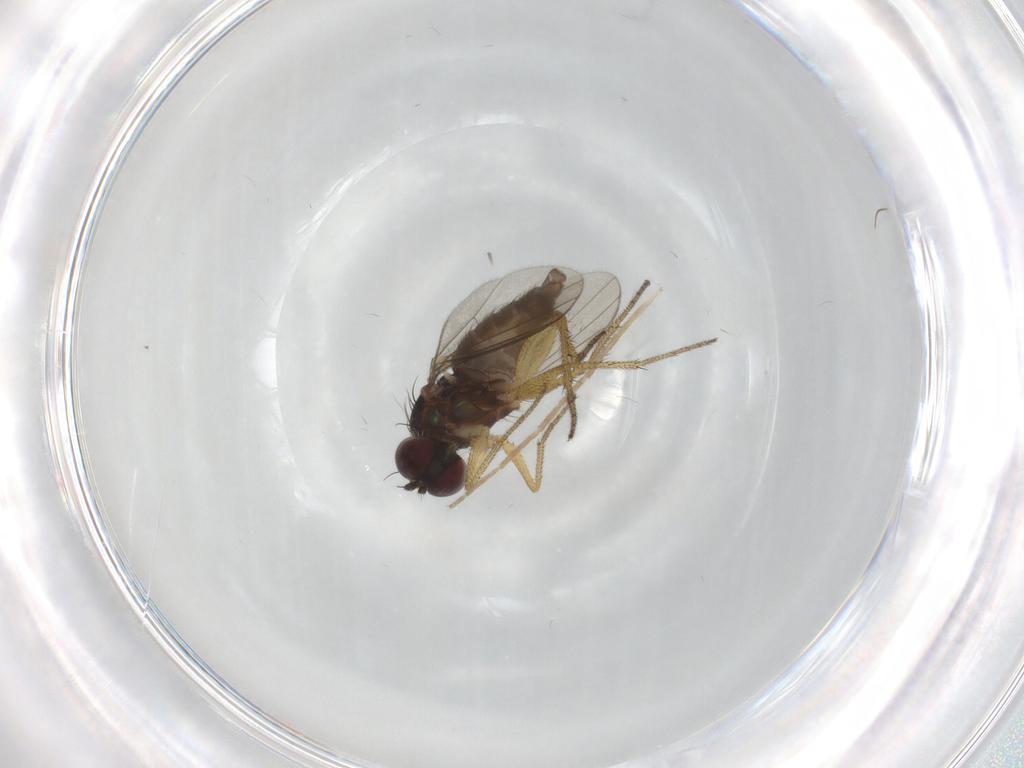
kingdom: Animalia
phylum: Arthropoda
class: Insecta
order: Diptera
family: Dolichopodidae
